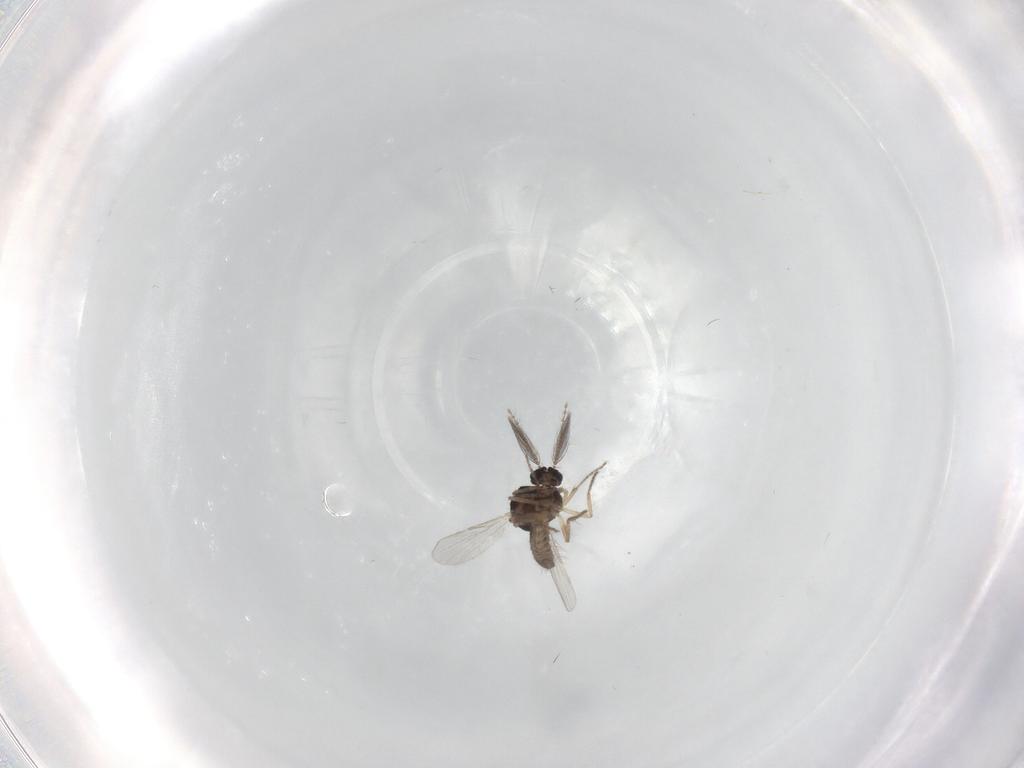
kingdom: Animalia
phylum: Arthropoda
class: Insecta
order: Diptera
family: Ceratopogonidae
